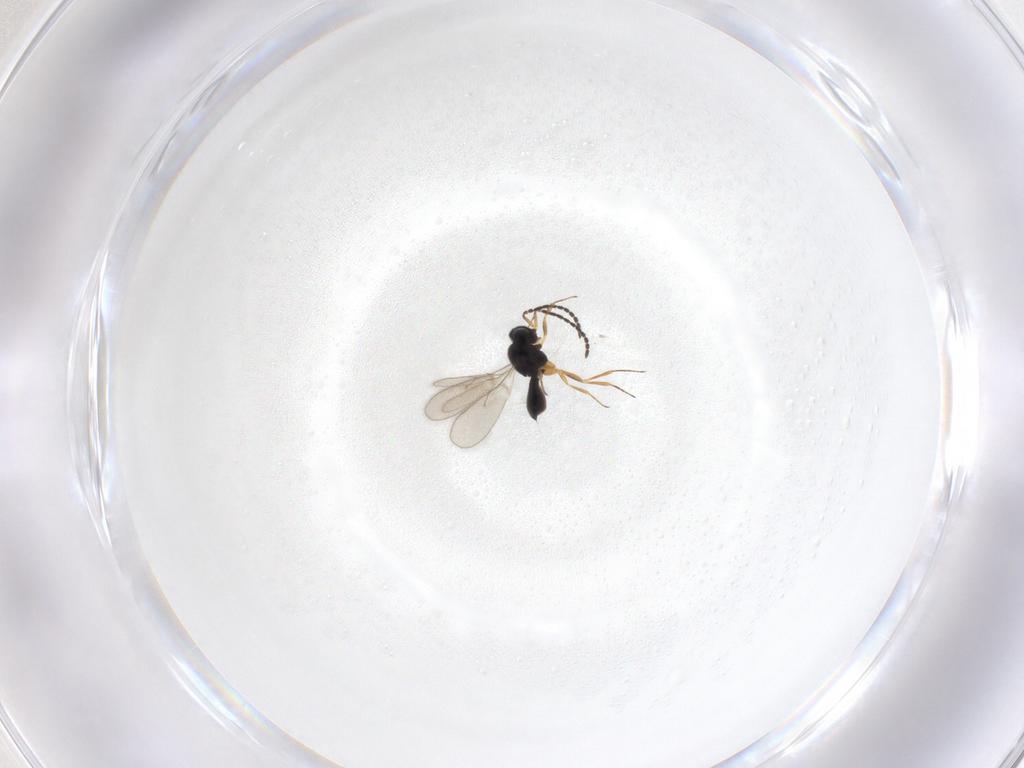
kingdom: Animalia
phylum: Arthropoda
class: Insecta
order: Hymenoptera
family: Scelionidae
